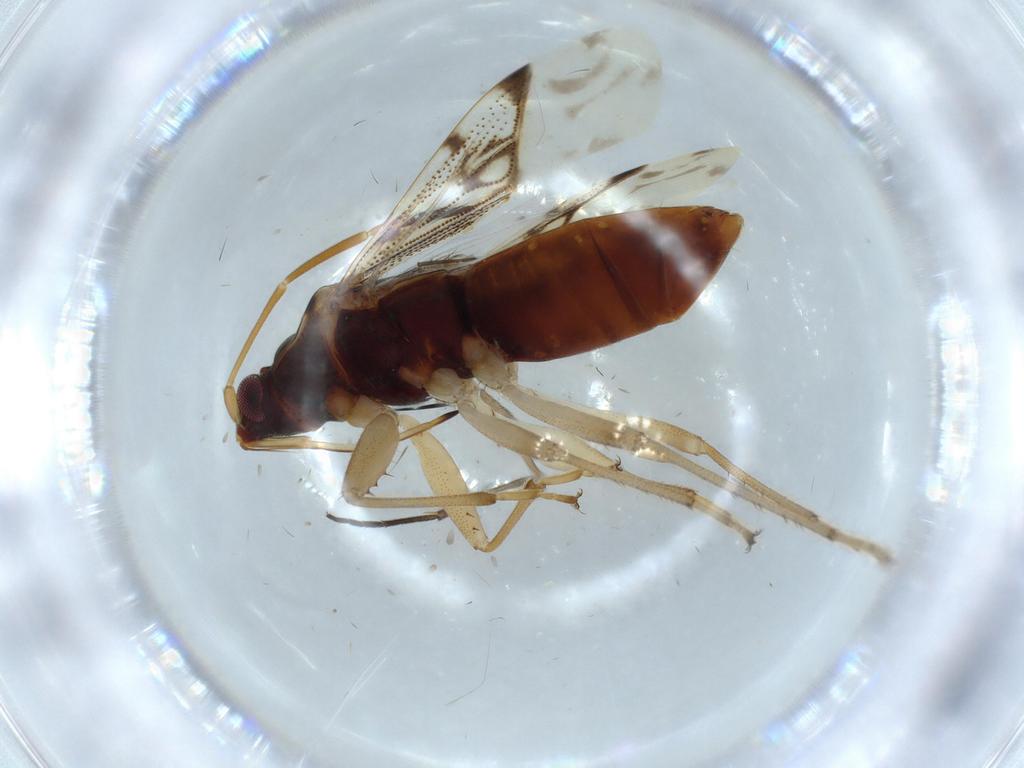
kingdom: Animalia
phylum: Arthropoda
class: Insecta
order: Hemiptera
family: Rhyparochromidae
